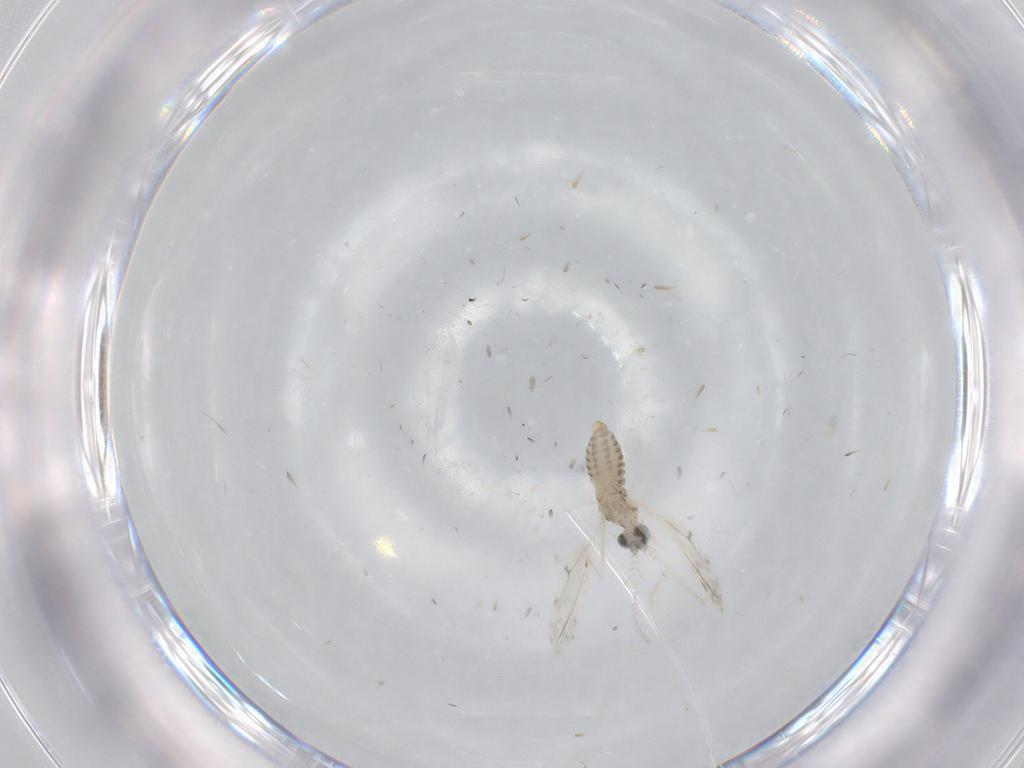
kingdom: Animalia
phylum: Arthropoda
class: Insecta
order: Diptera
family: Cecidomyiidae
